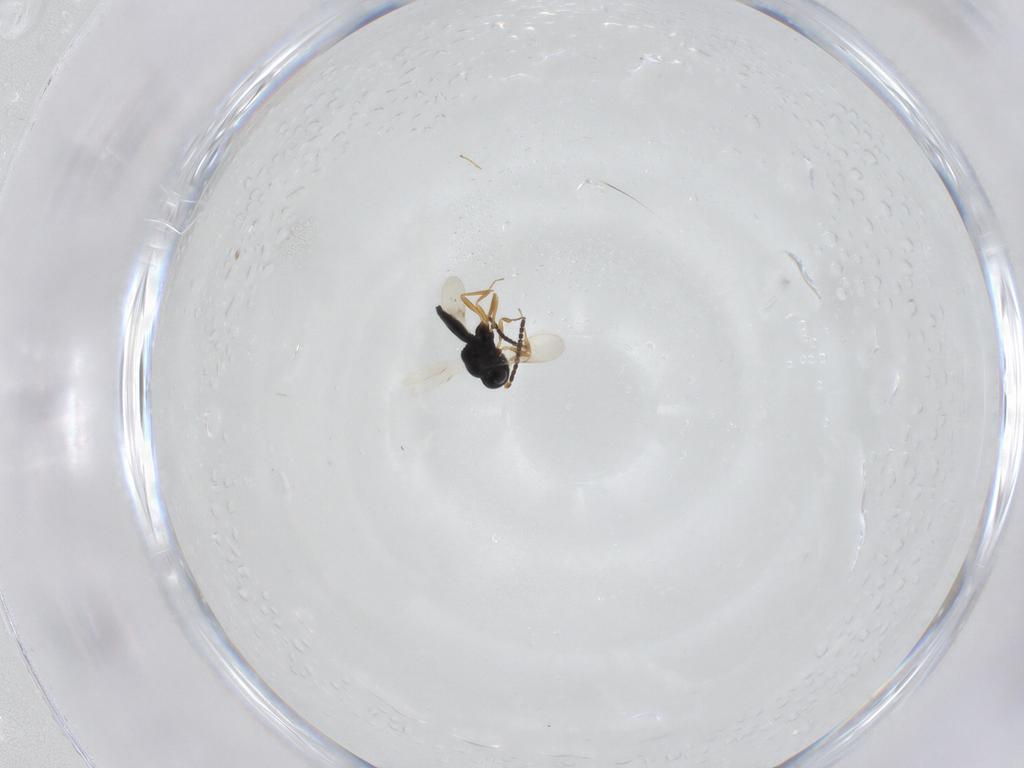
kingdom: Animalia
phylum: Arthropoda
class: Insecta
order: Hymenoptera
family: Scelionidae
